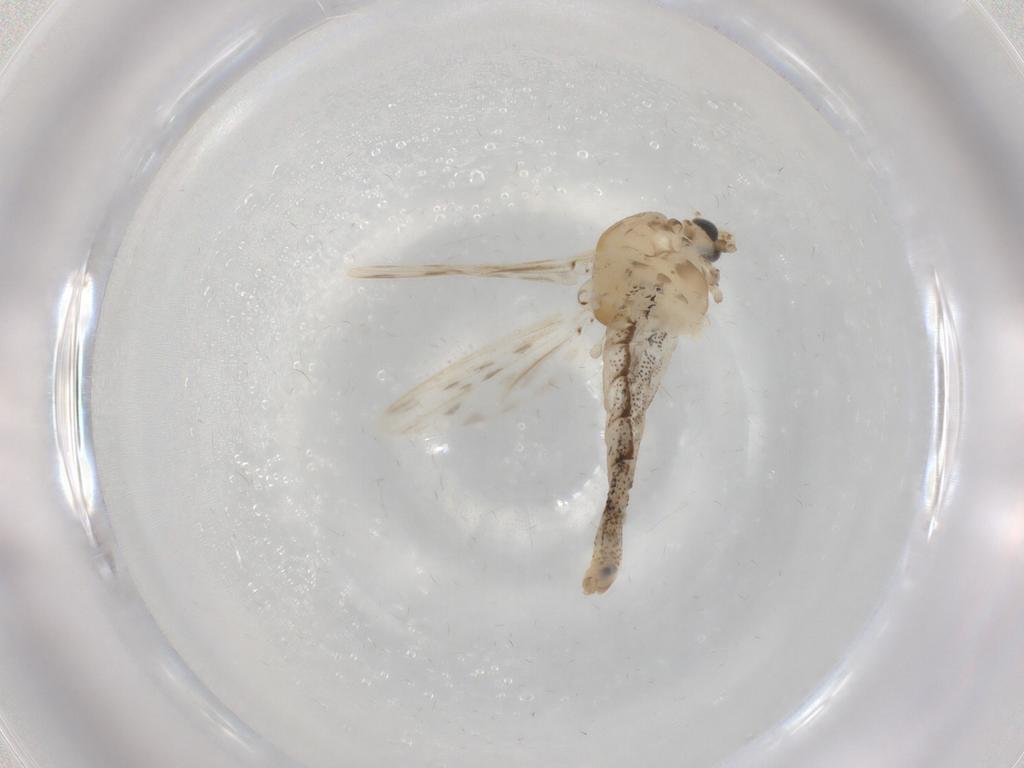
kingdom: Animalia
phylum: Arthropoda
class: Insecta
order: Diptera
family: Chaoboridae
